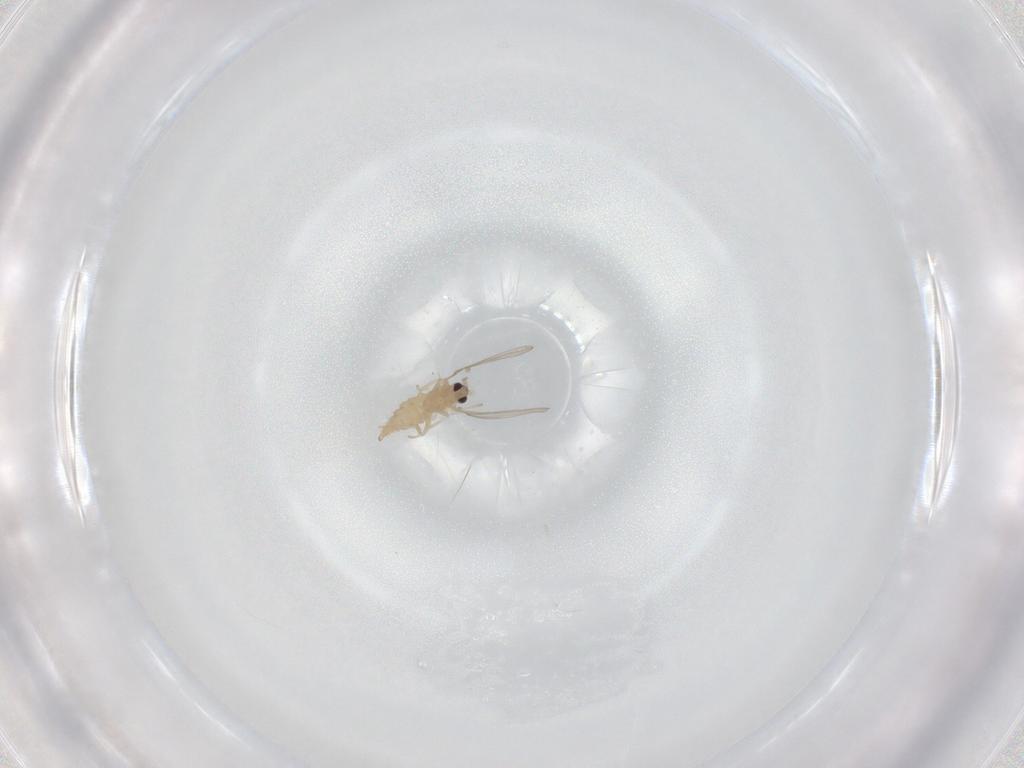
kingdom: Animalia
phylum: Arthropoda
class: Insecta
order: Diptera
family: Cecidomyiidae
